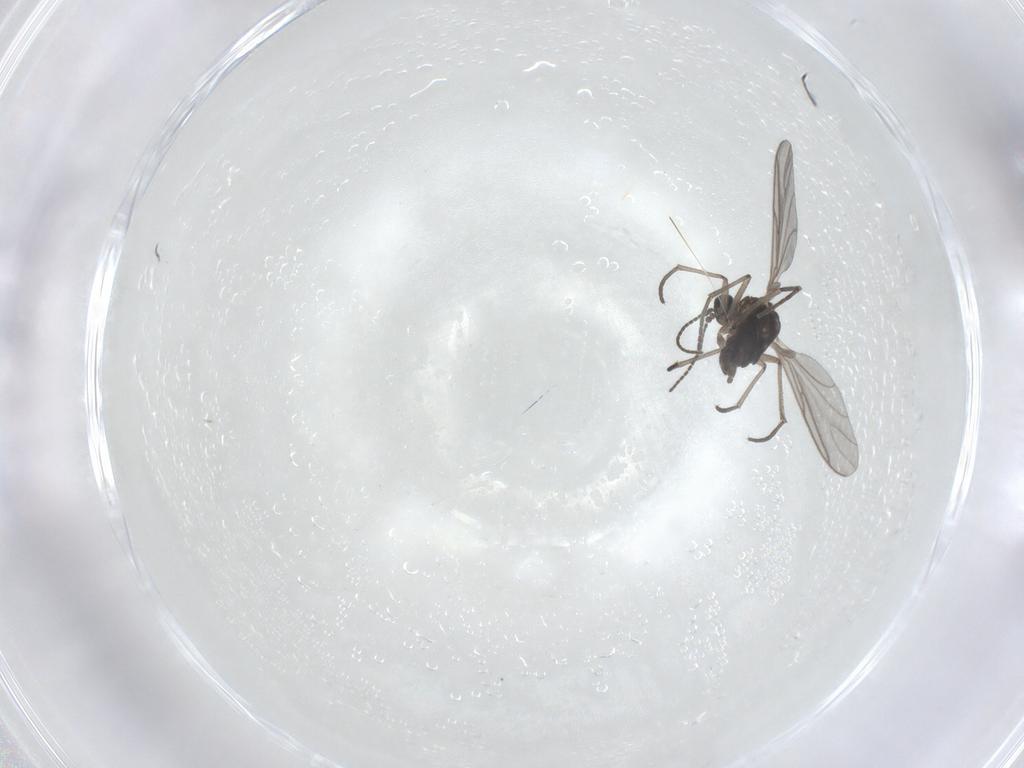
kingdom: Animalia
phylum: Arthropoda
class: Insecta
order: Diptera
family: Sciaridae
